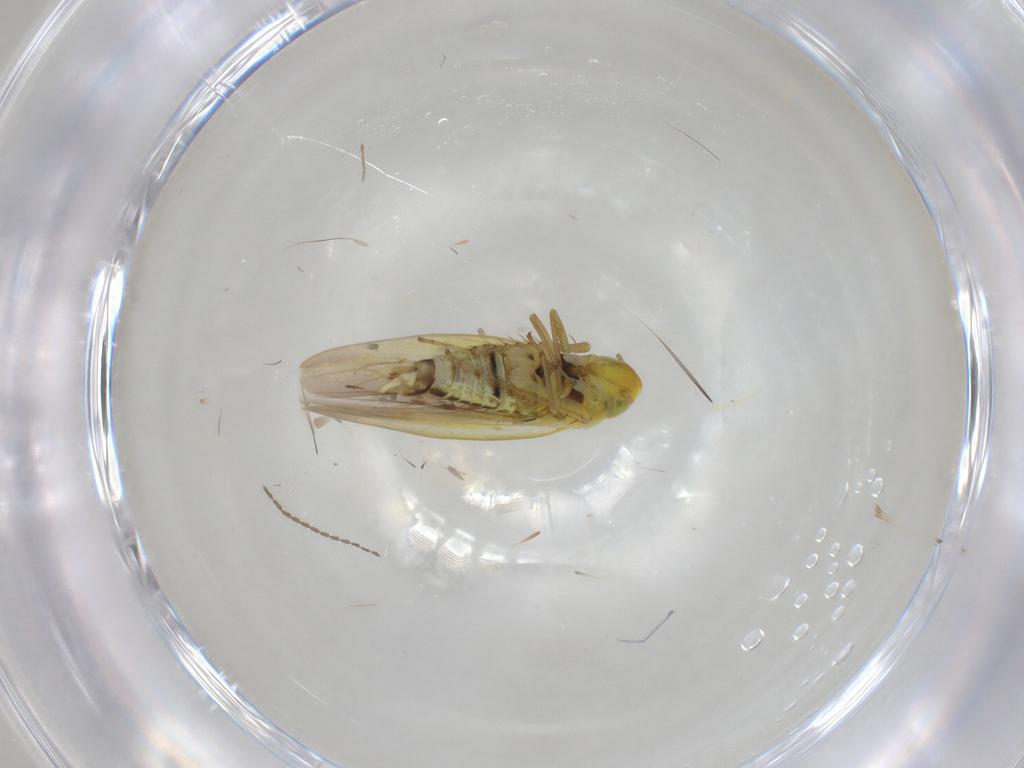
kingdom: Animalia
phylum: Arthropoda
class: Insecta
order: Hemiptera
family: Cicadellidae
